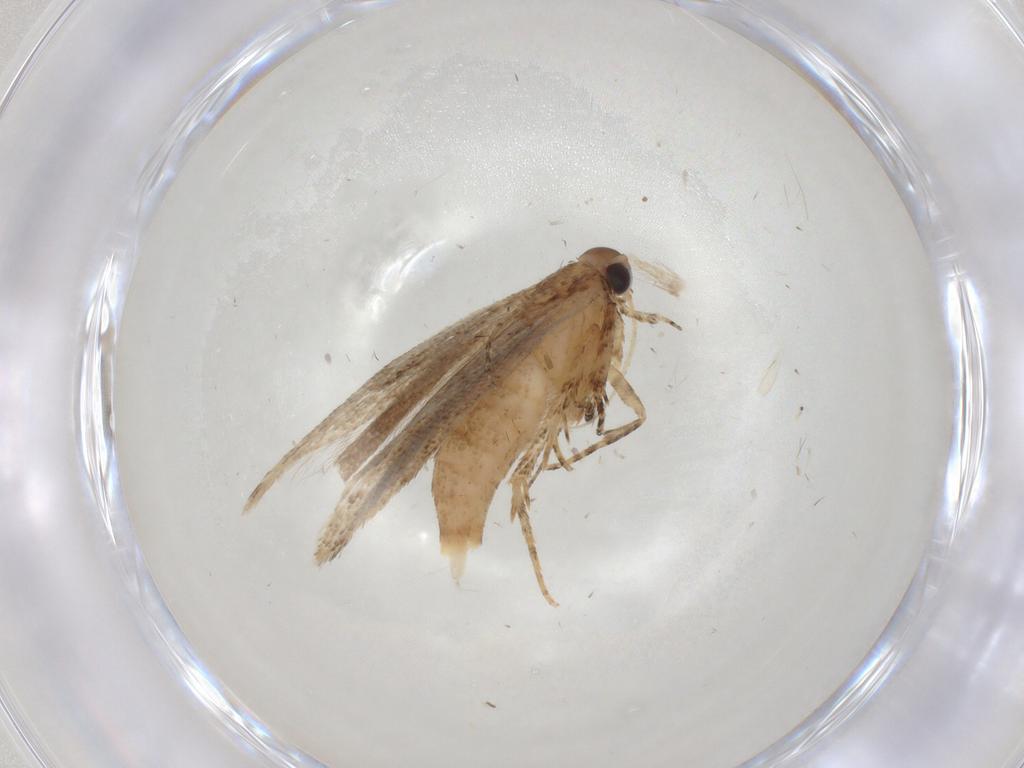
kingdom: Animalia
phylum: Arthropoda
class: Insecta
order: Lepidoptera
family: Gelechiidae
